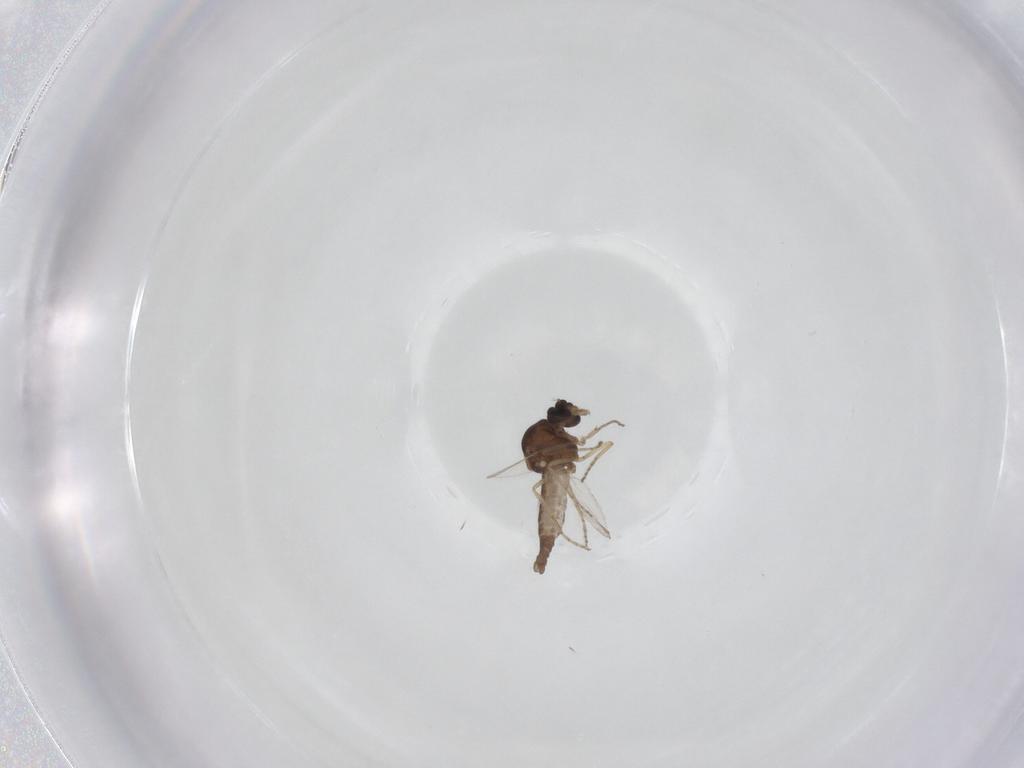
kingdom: Animalia
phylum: Arthropoda
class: Insecta
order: Diptera
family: Ceratopogonidae
